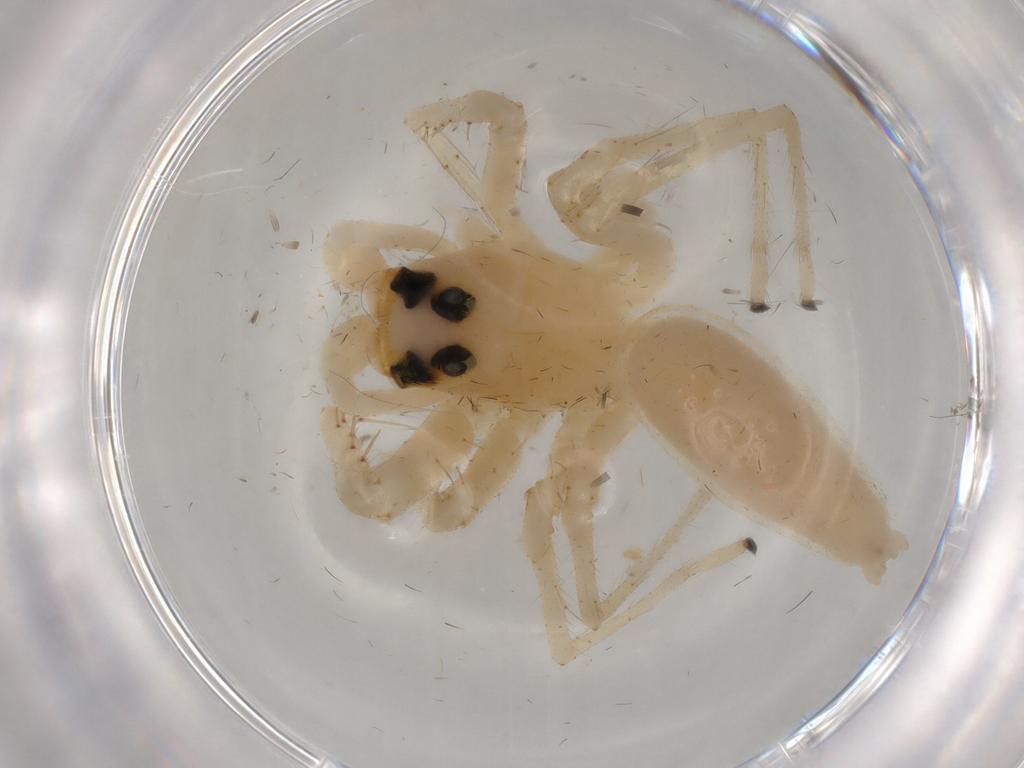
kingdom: Animalia
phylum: Arthropoda
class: Arachnida
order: Araneae
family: Salticidae
